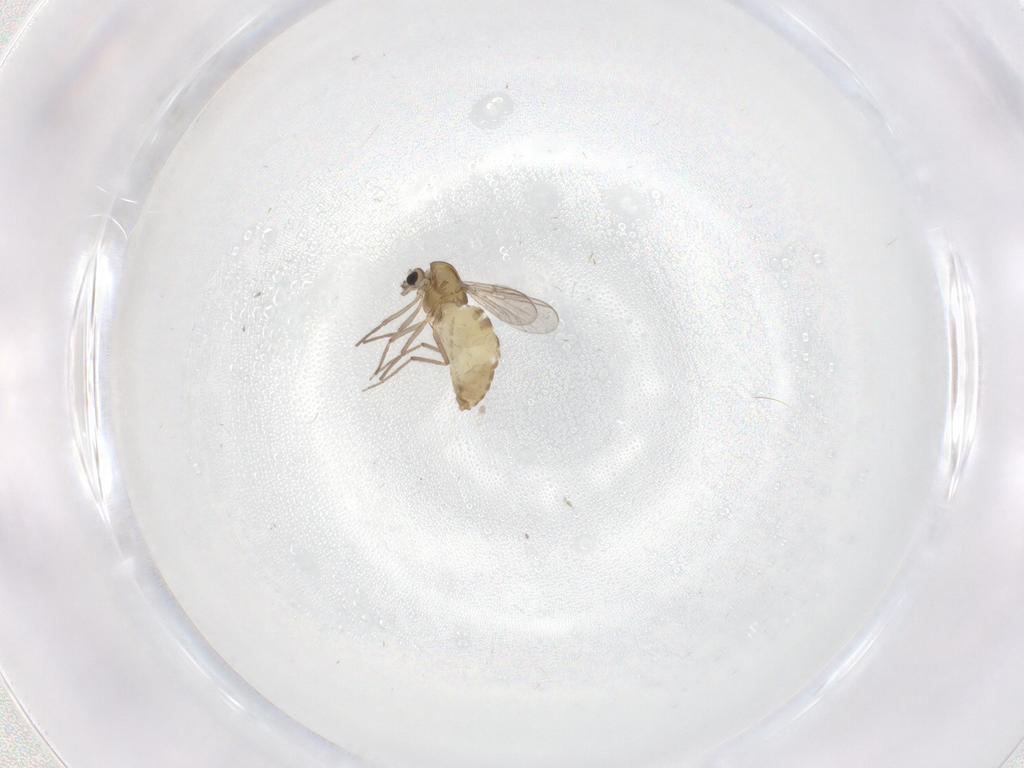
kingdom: Animalia
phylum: Arthropoda
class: Insecta
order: Diptera
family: Chironomidae
